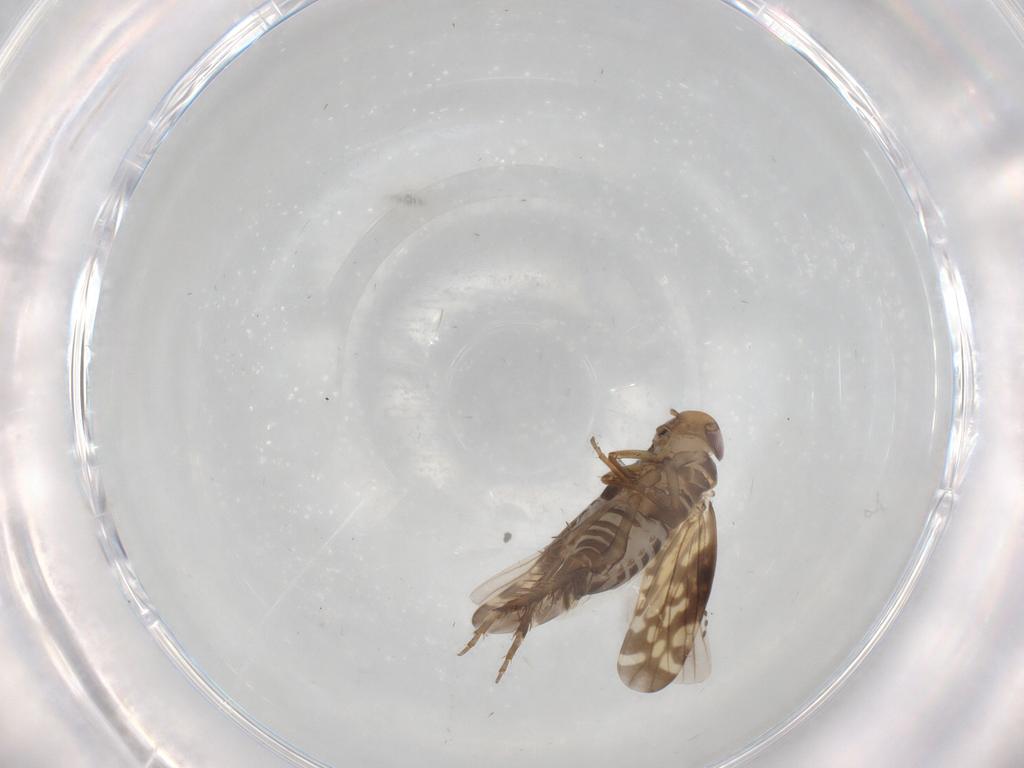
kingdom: Animalia
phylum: Arthropoda
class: Insecta
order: Hemiptera
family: Cicadellidae
